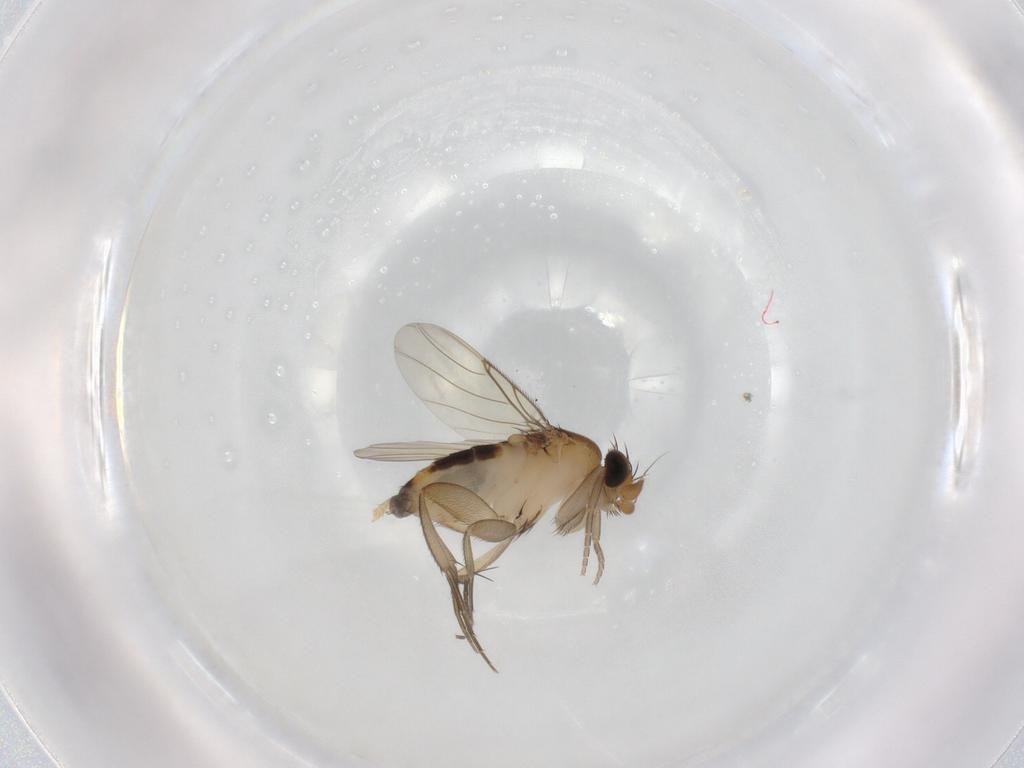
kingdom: Animalia
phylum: Arthropoda
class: Insecta
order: Diptera
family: Phoridae
